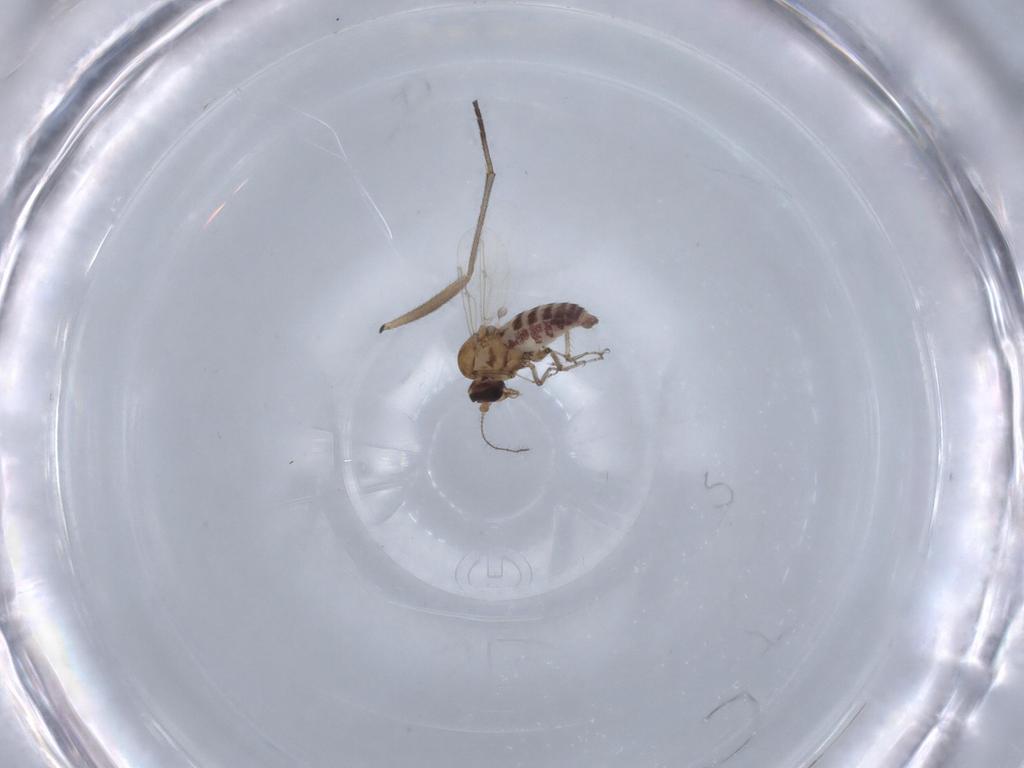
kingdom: Animalia
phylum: Arthropoda
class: Insecta
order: Diptera
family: Ceratopogonidae
